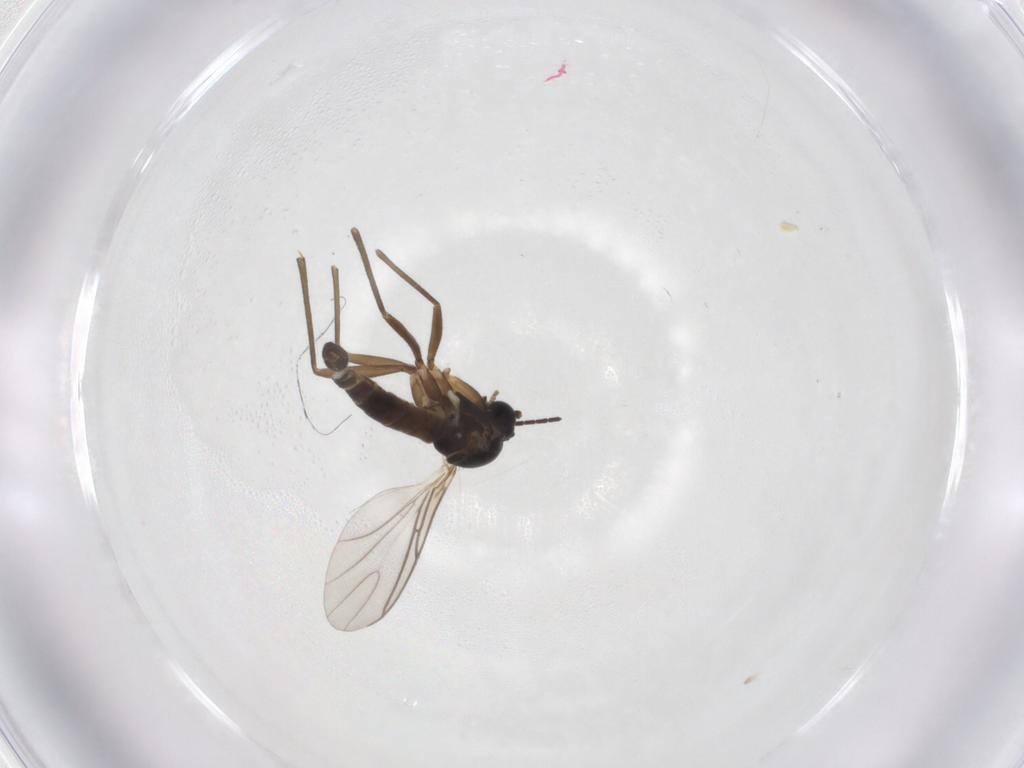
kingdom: Animalia
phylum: Arthropoda
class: Insecta
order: Diptera
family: Sciaridae
